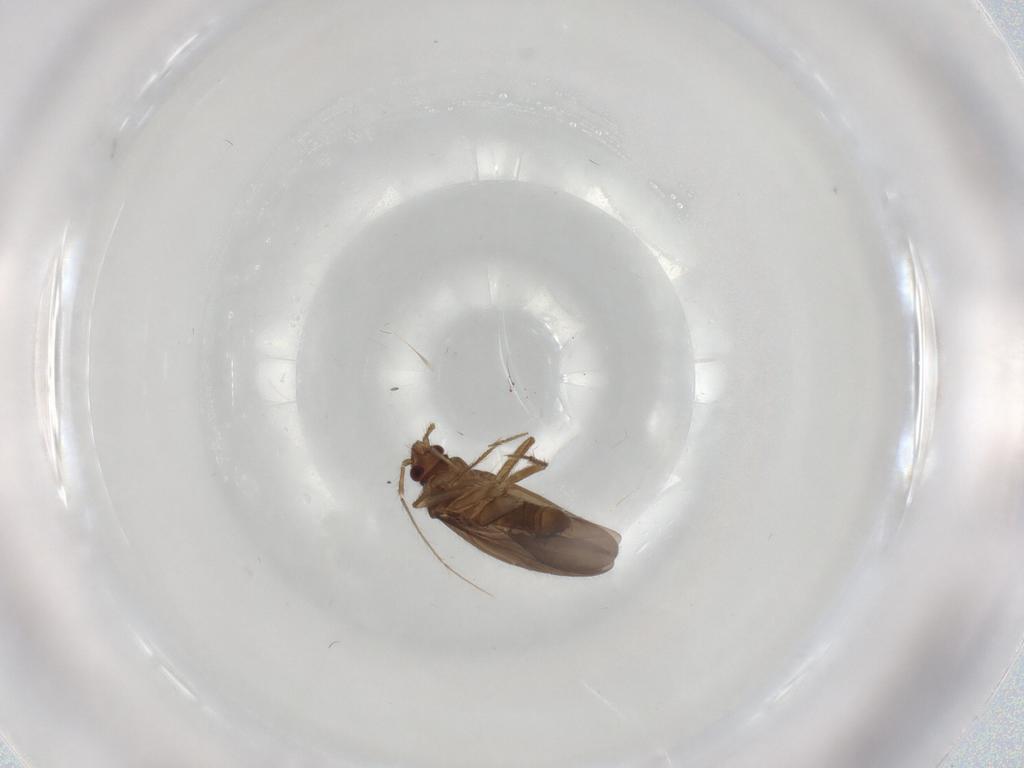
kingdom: Animalia
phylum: Arthropoda
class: Insecta
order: Hemiptera
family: Ceratocombidae
